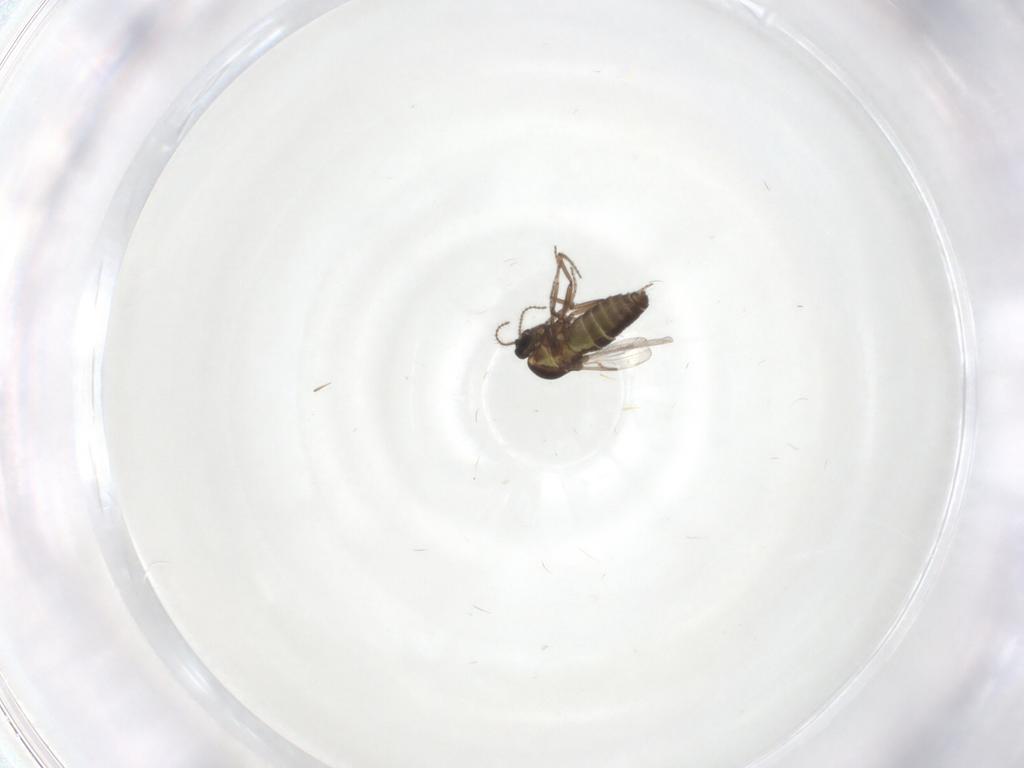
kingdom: Animalia
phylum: Arthropoda
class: Insecta
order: Diptera
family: Ceratopogonidae
